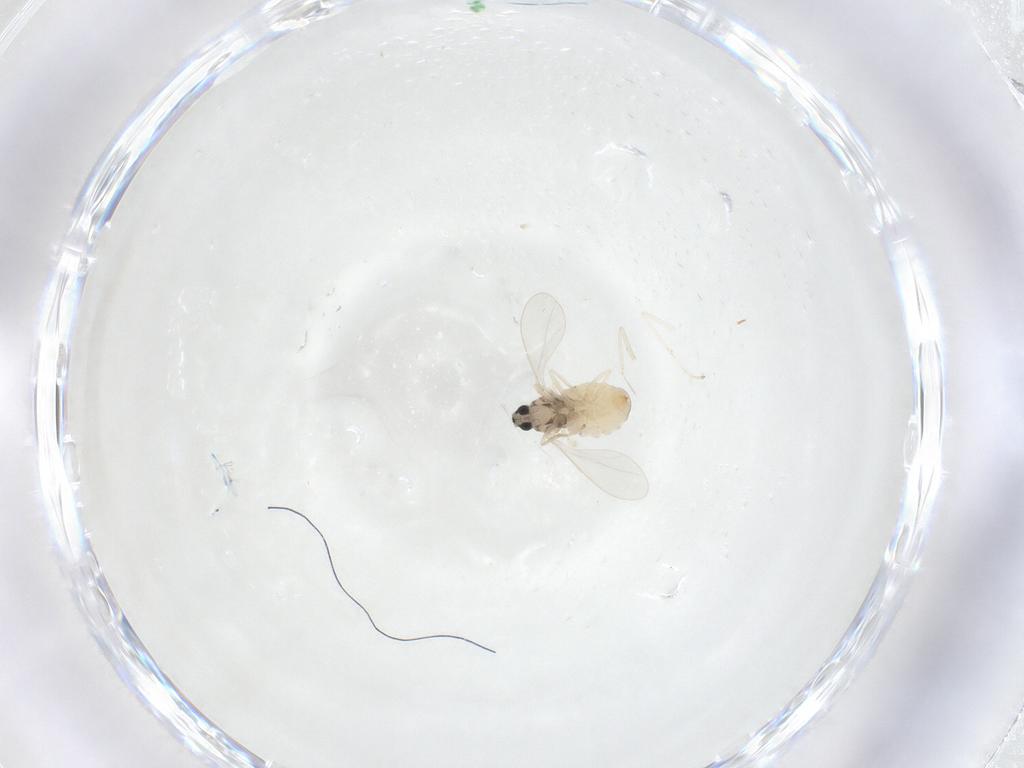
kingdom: Animalia
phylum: Arthropoda
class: Insecta
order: Diptera
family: Cecidomyiidae
